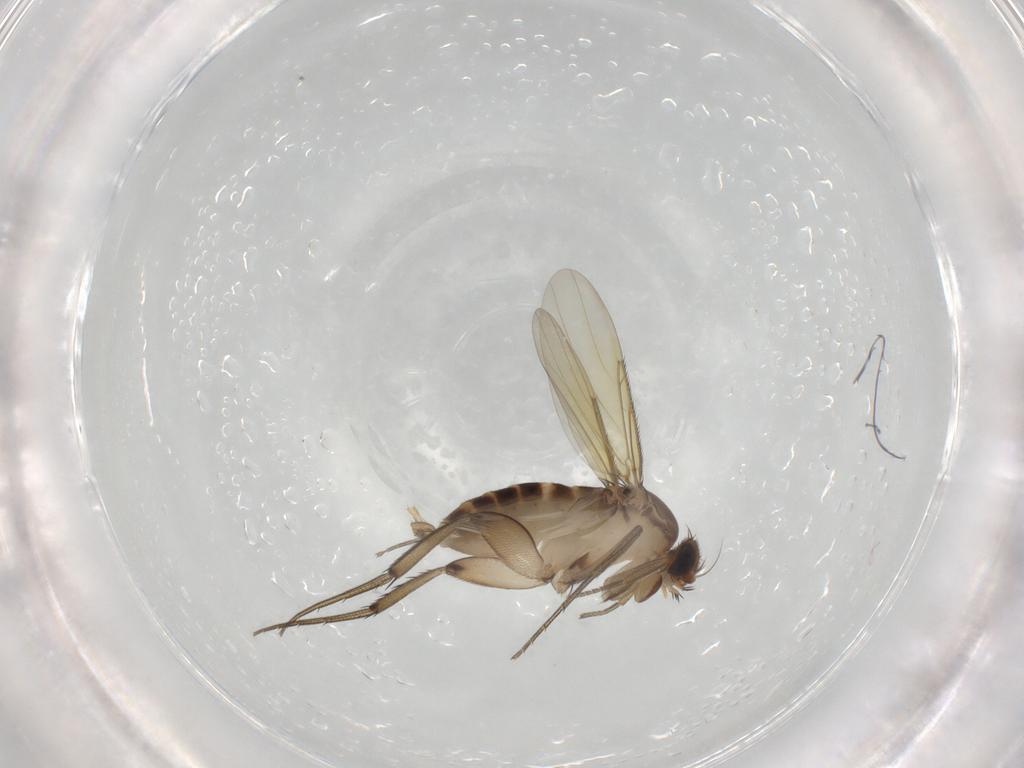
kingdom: Animalia
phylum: Arthropoda
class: Insecta
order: Diptera
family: Phoridae
